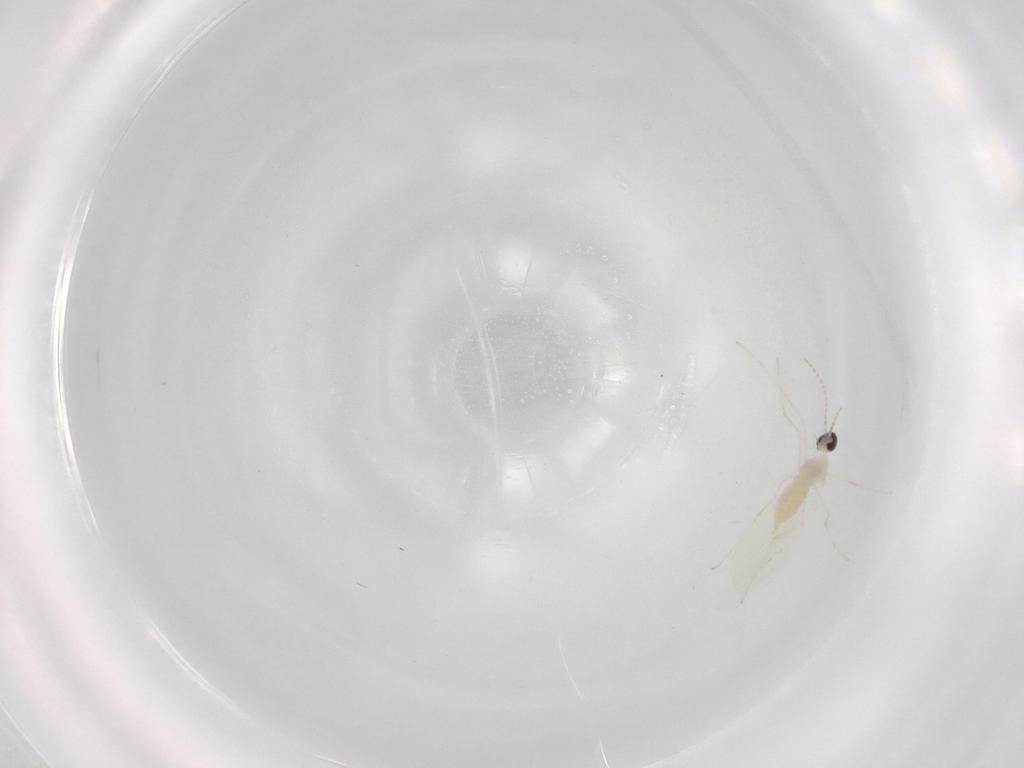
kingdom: Animalia
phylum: Arthropoda
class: Insecta
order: Diptera
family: Cecidomyiidae
